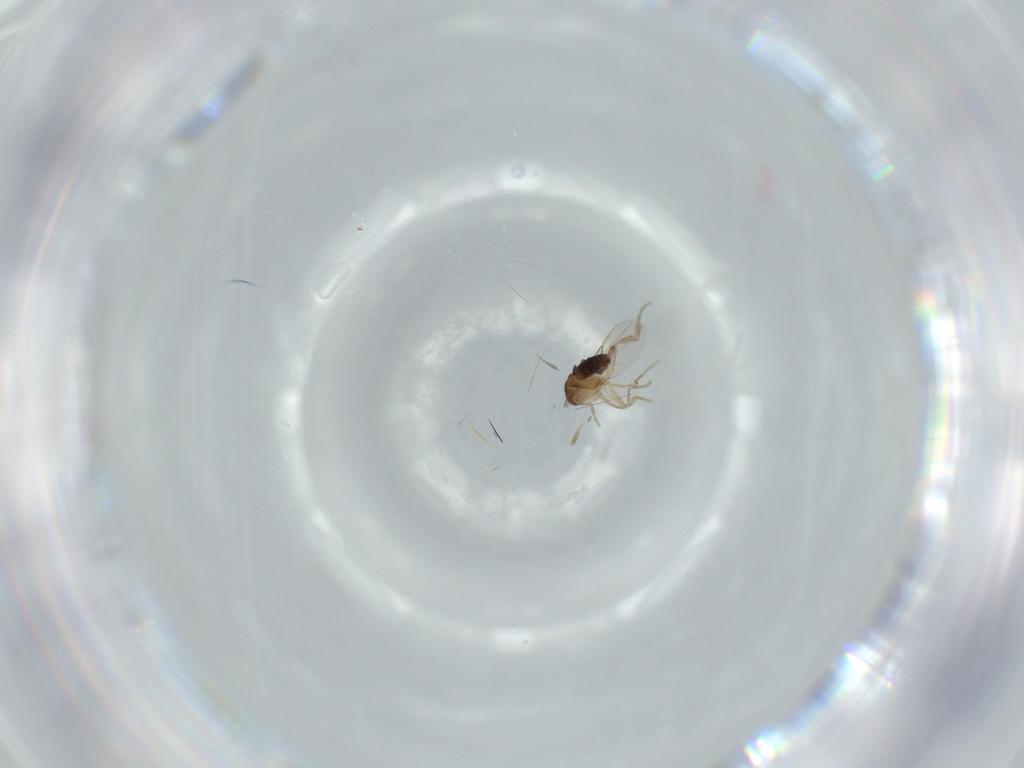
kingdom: Animalia
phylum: Arthropoda
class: Insecta
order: Diptera
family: Phoridae
